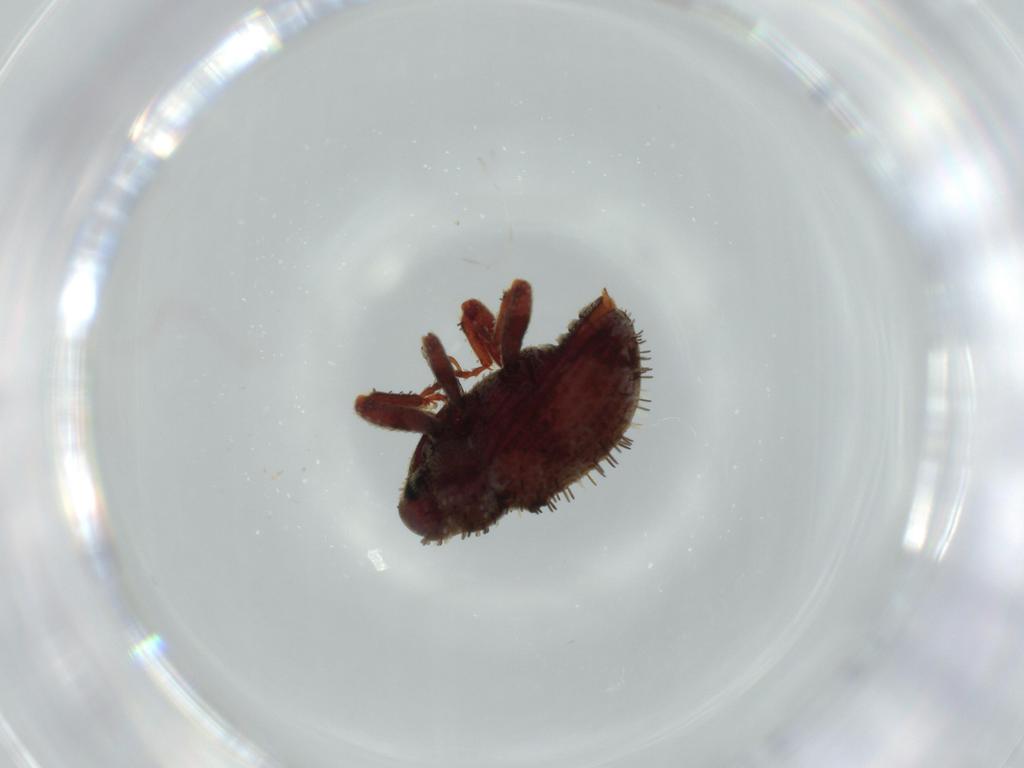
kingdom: Animalia
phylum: Arthropoda
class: Insecta
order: Coleoptera
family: Curculionidae
